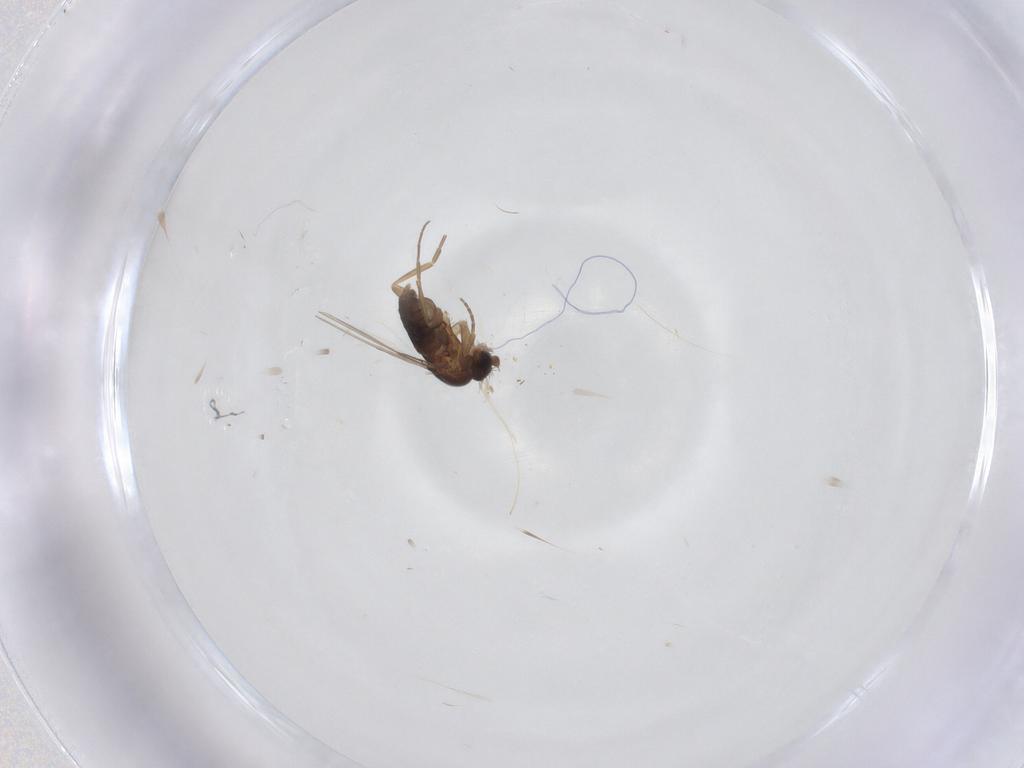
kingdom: Animalia
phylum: Arthropoda
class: Insecta
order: Diptera
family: Phoridae
